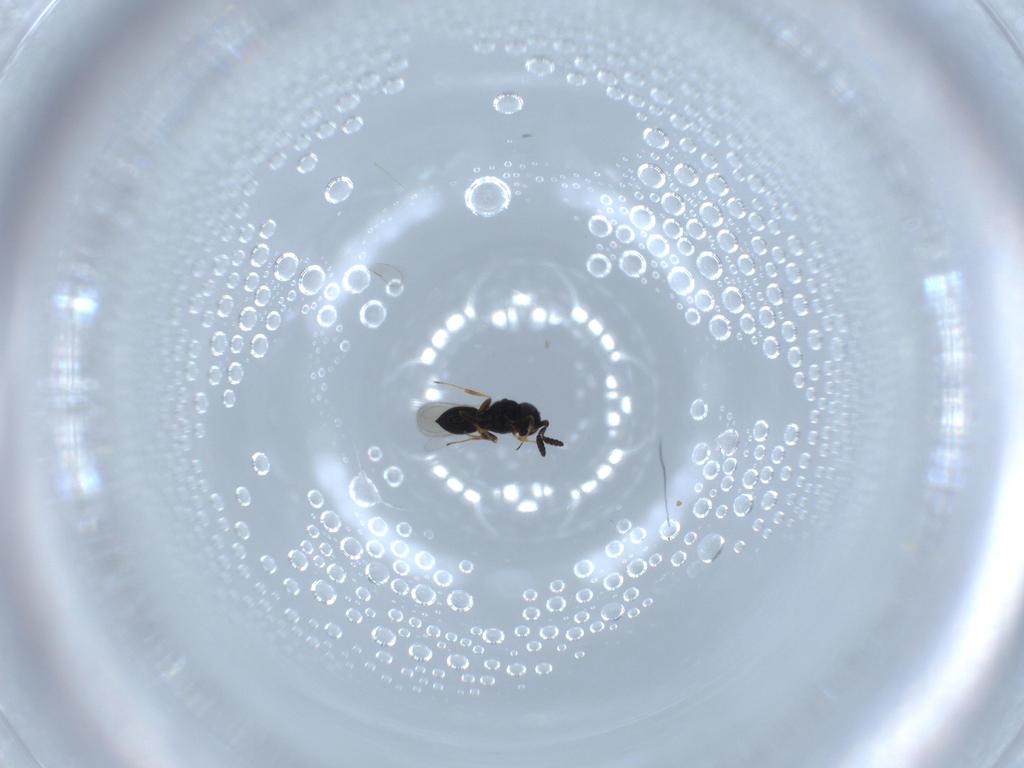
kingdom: Animalia
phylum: Arthropoda
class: Insecta
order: Hymenoptera
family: Scelionidae
